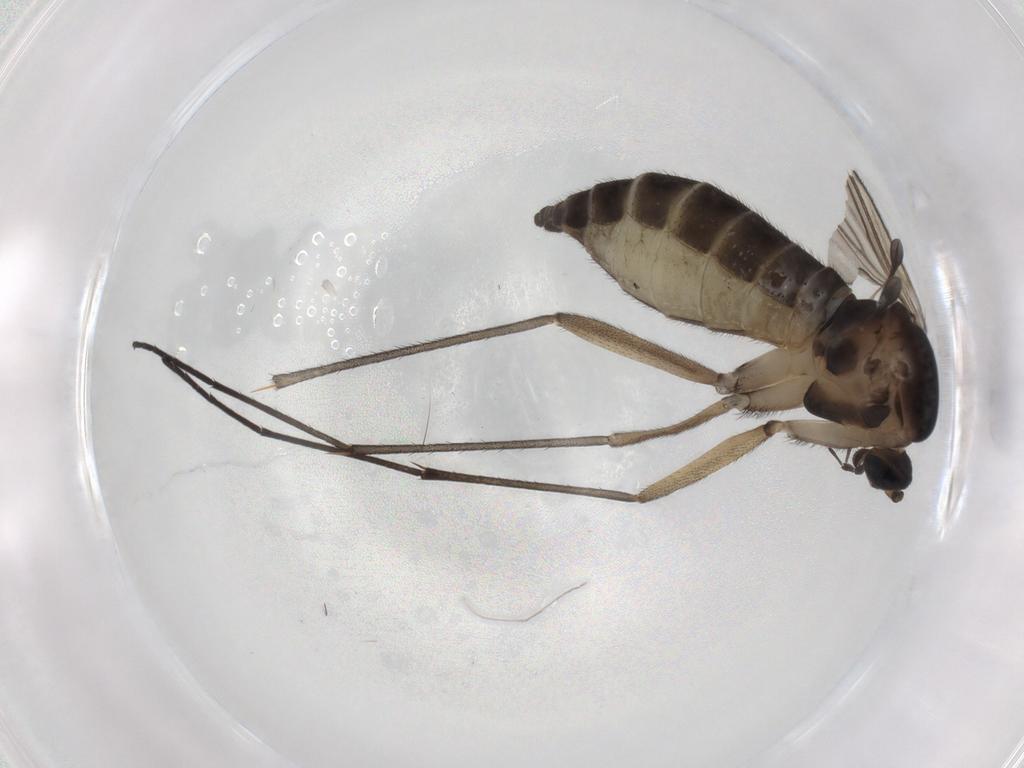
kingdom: Animalia
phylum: Arthropoda
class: Insecta
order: Diptera
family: Sciaridae
